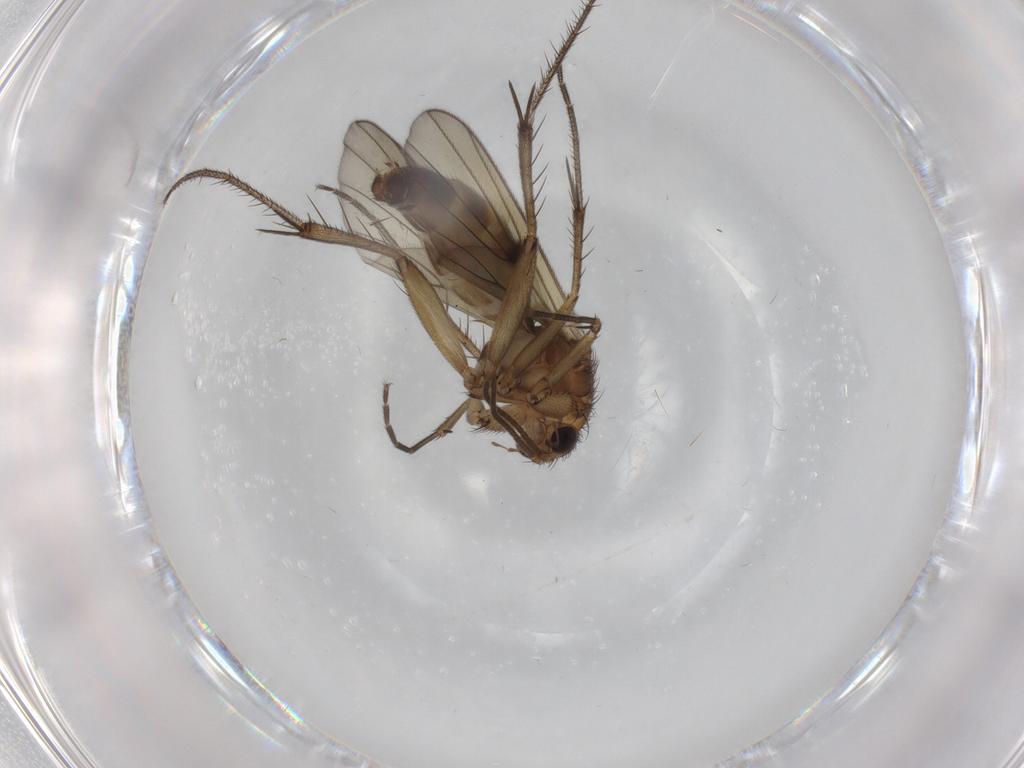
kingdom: Animalia
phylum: Arthropoda
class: Insecta
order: Diptera
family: Mycetophilidae
